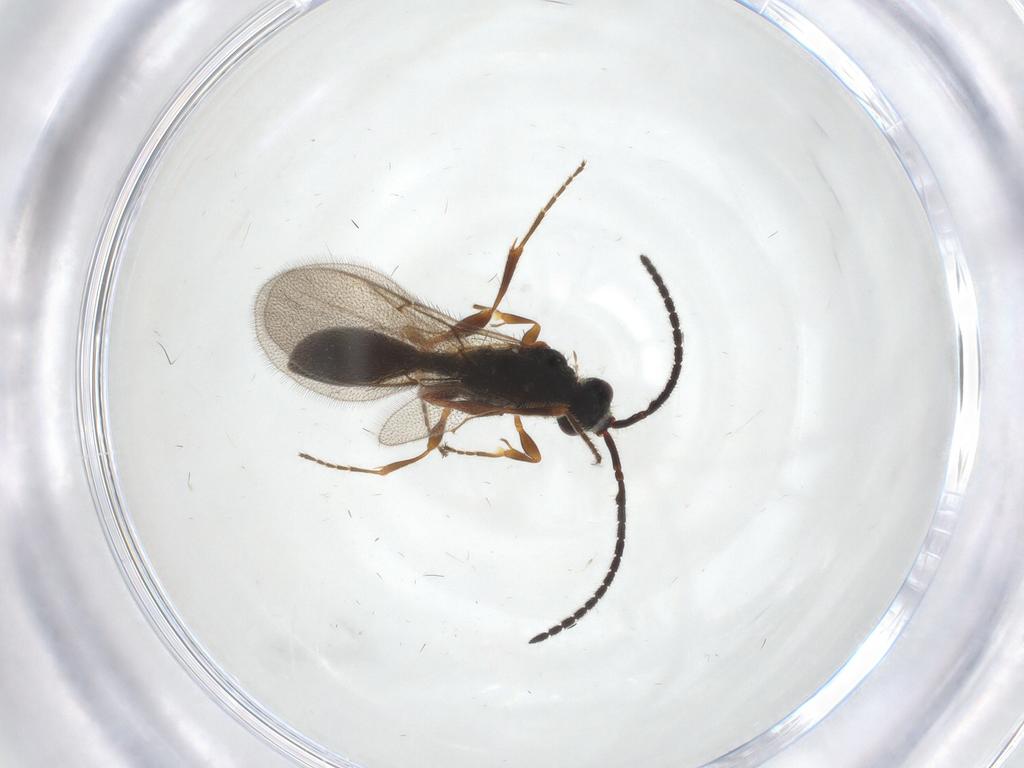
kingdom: Animalia
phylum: Arthropoda
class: Insecta
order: Hymenoptera
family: Diapriidae
